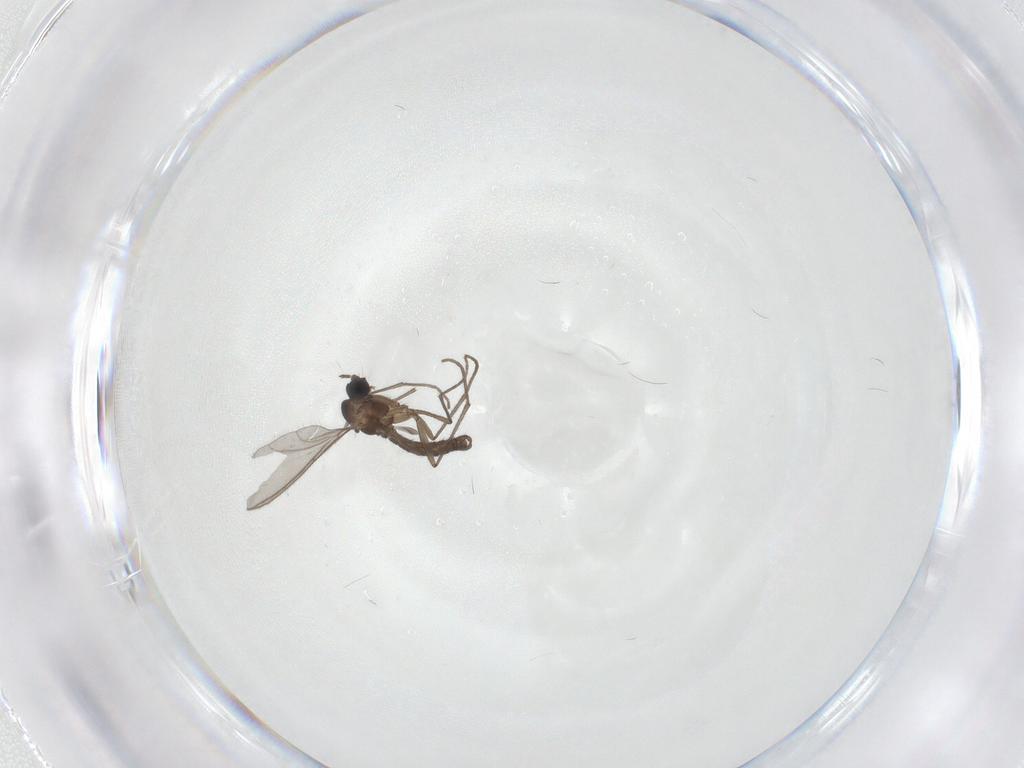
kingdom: Animalia
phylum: Arthropoda
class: Insecta
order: Diptera
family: Sciaridae
